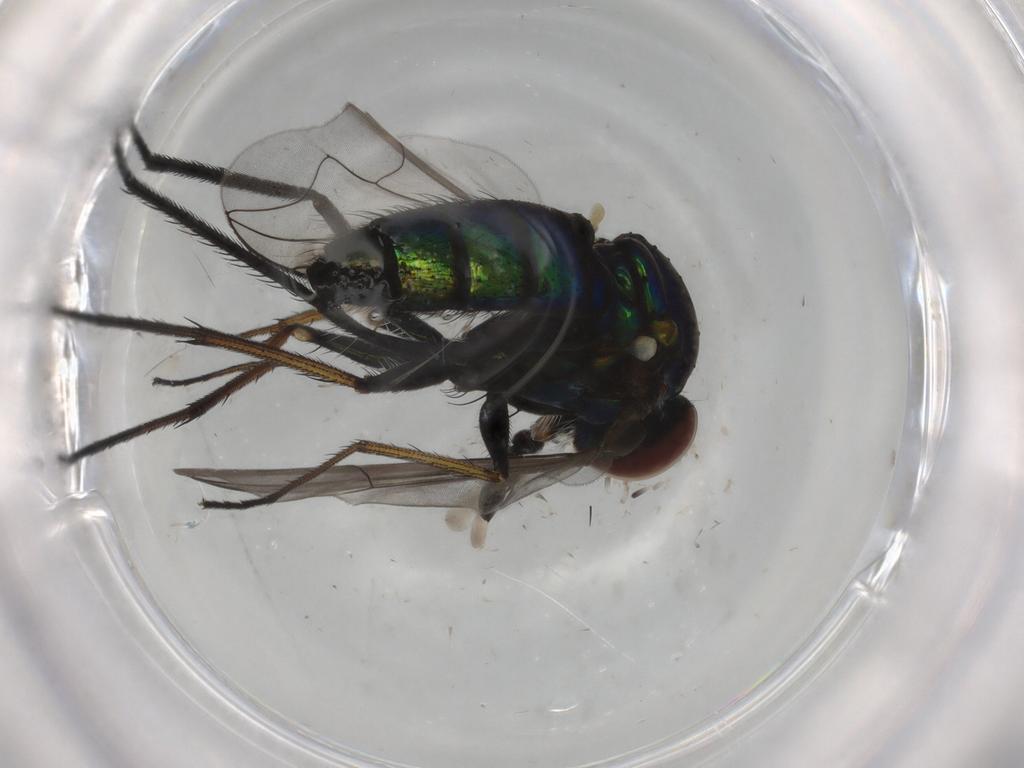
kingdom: Animalia
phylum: Arthropoda
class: Insecta
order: Diptera
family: Dolichopodidae
